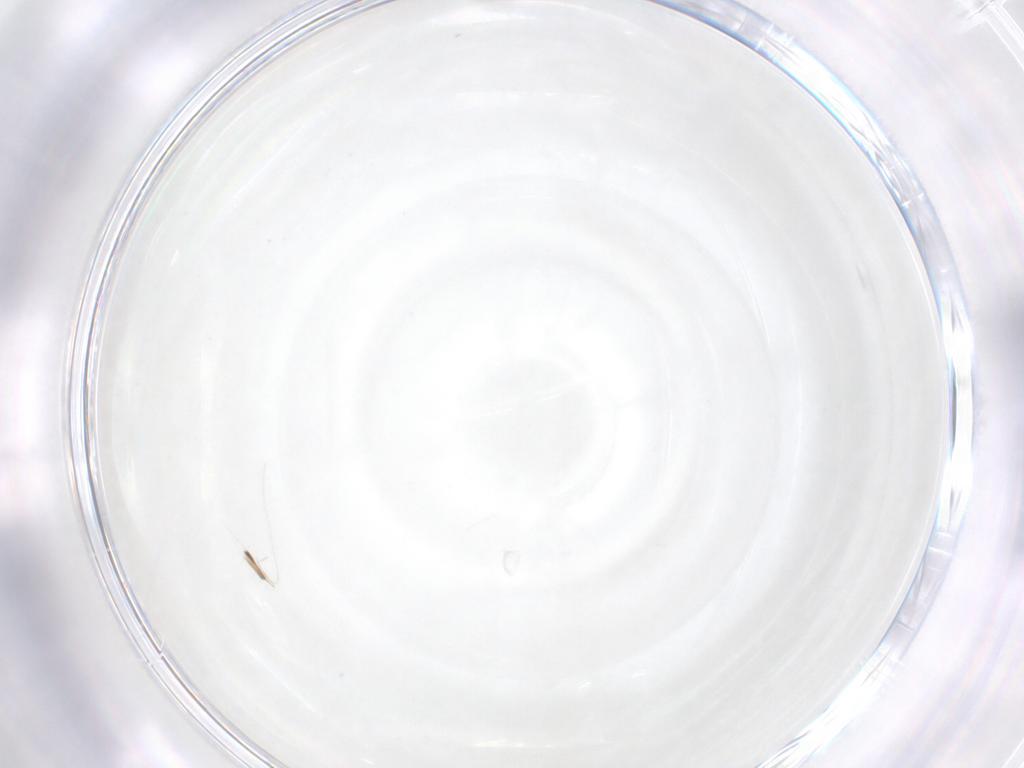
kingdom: Animalia
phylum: Arthropoda
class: Insecta
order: Diptera
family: Cecidomyiidae
